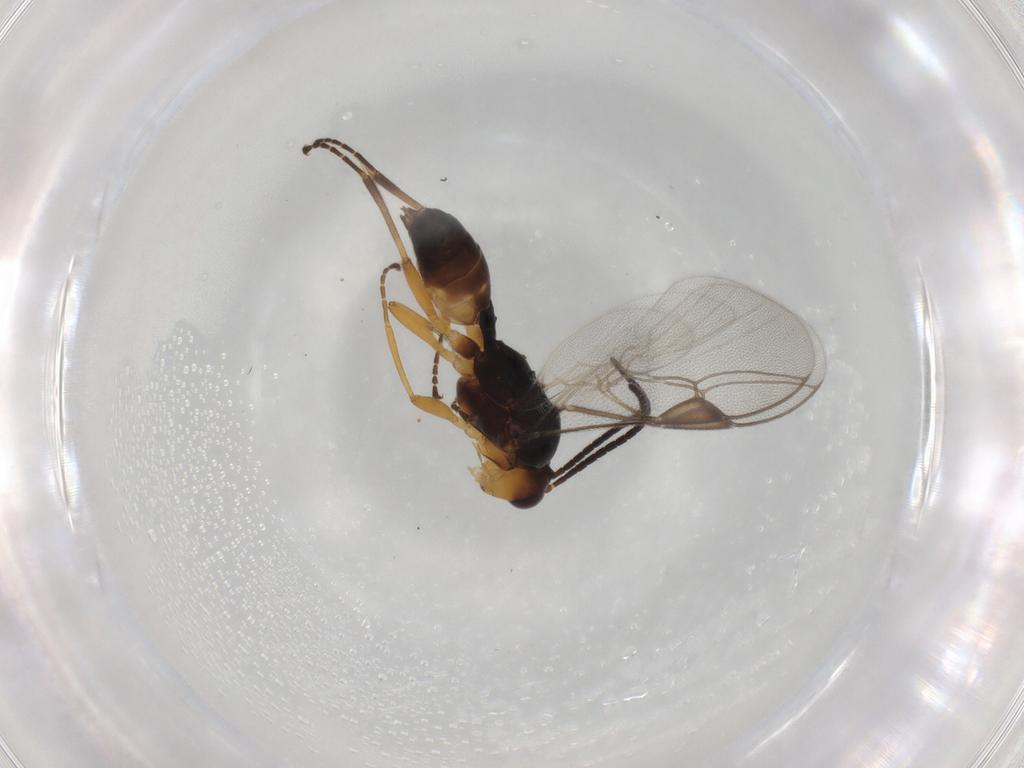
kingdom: Animalia
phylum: Arthropoda
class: Insecta
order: Hymenoptera
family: Braconidae
